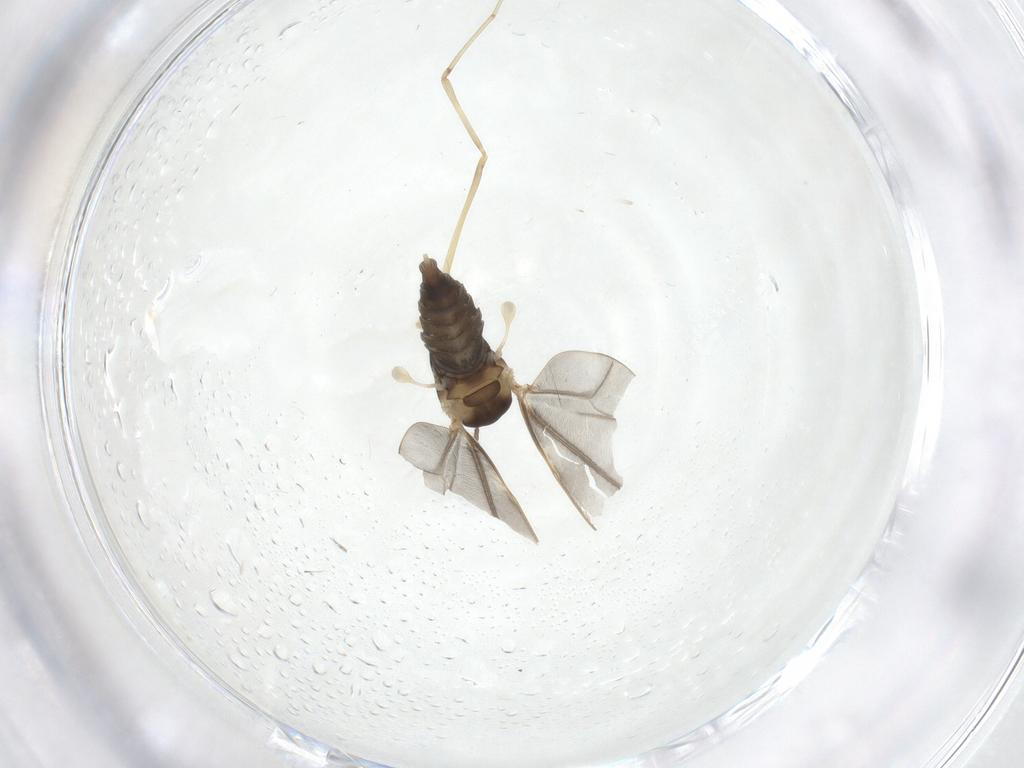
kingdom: Animalia
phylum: Arthropoda
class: Insecta
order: Diptera
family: Cecidomyiidae
